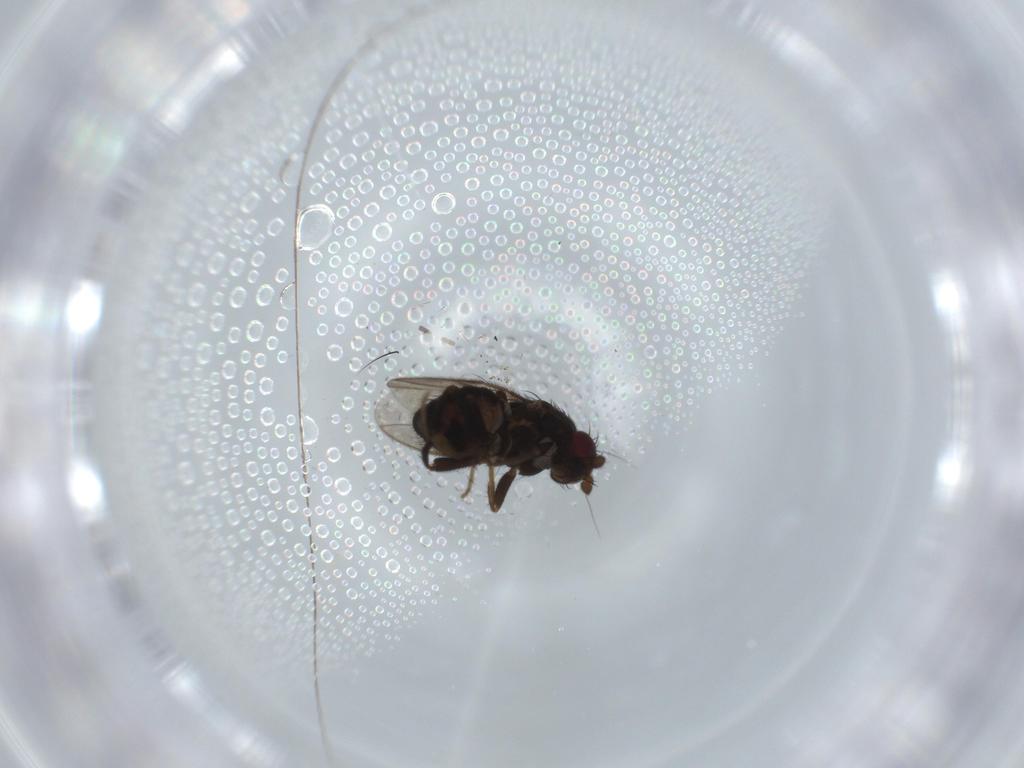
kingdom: Animalia
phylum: Arthropoda
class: Insecta
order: Diptera
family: Sphaeroceridae
